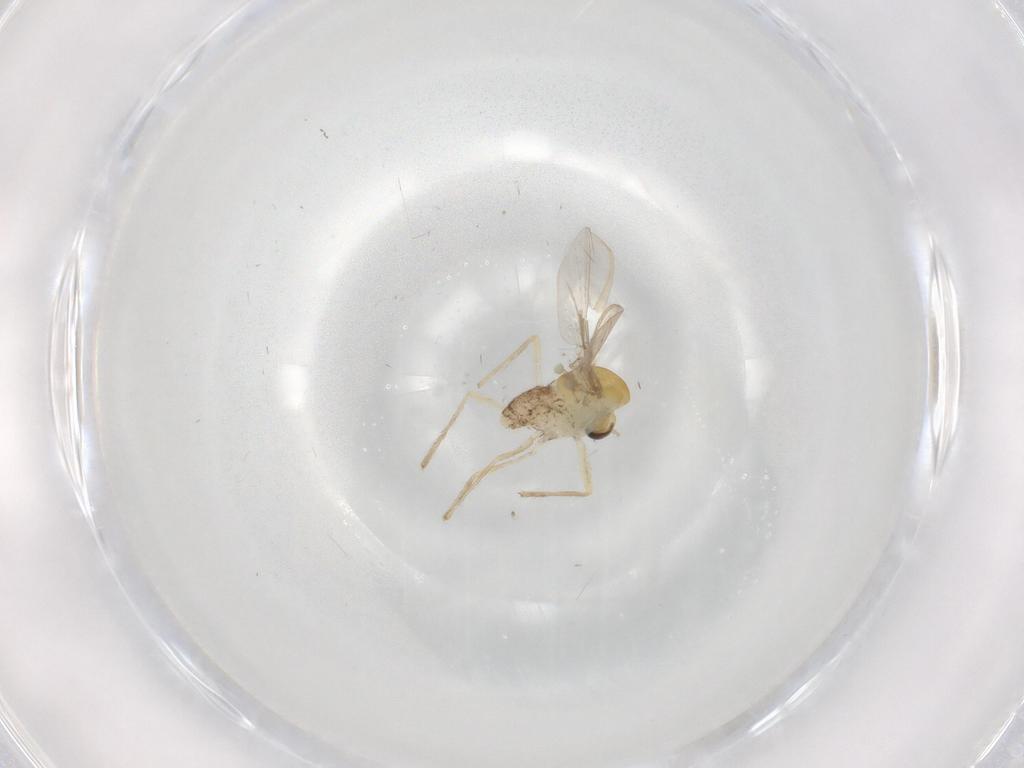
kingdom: Animalia
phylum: Arthropoda
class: Insecta
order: Diptera
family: Chironomidae
